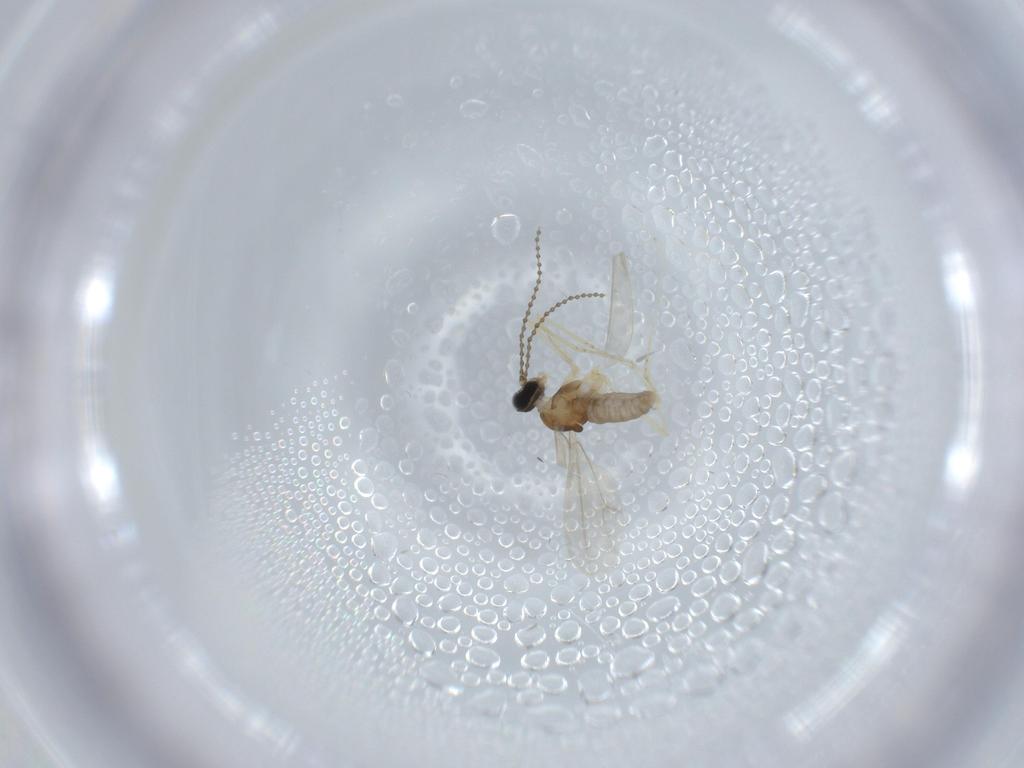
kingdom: Animalia
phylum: Arthropoda
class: Insecta
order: Diptera
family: Cecidomyiidae
